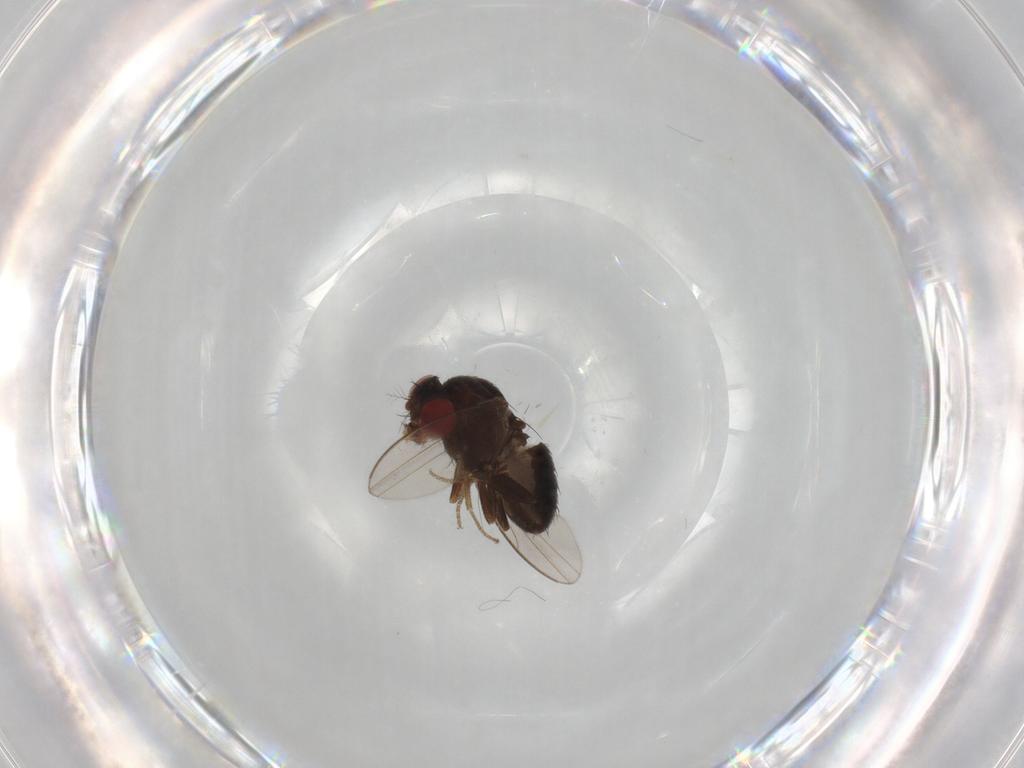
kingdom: Animalia
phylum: Arthropoda
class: Insecta
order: Diptera
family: Drosophilidae
